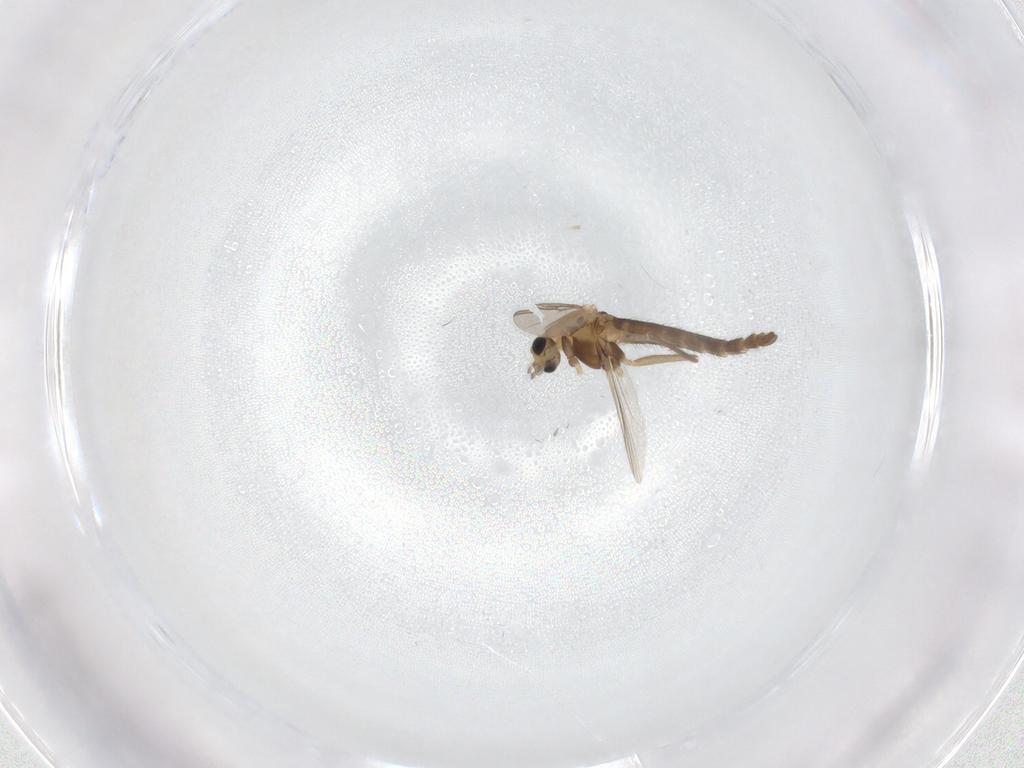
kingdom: Animalia
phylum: Arthropoda
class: Insecta
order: Diptera
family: Chironomidae
